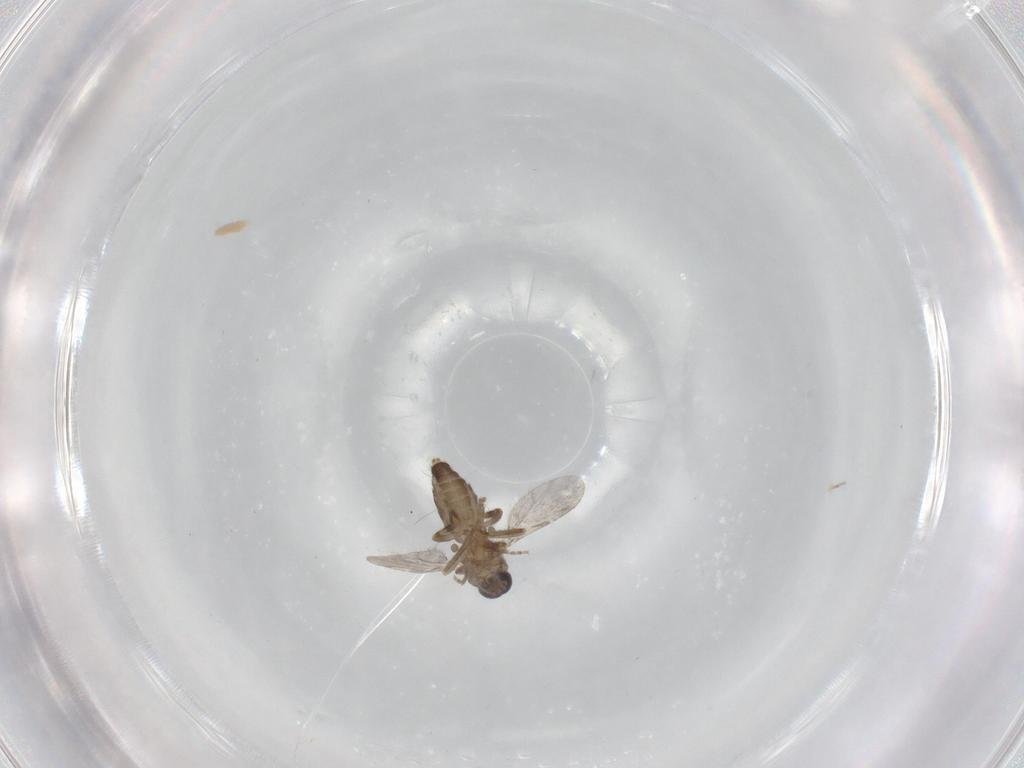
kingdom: Animalia
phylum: Arthropoda
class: Insecta
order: Diptera
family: Ceratopogonidae
